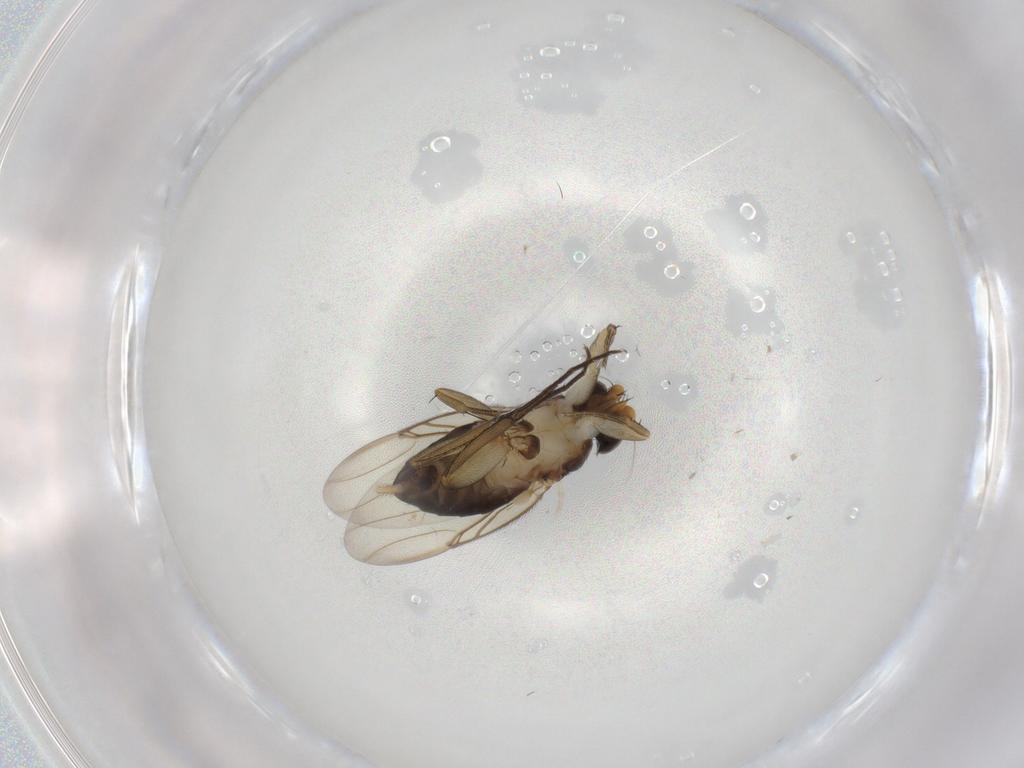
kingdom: Animalia
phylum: Arthropoda
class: Insecta
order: Diptera
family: Phoridae
